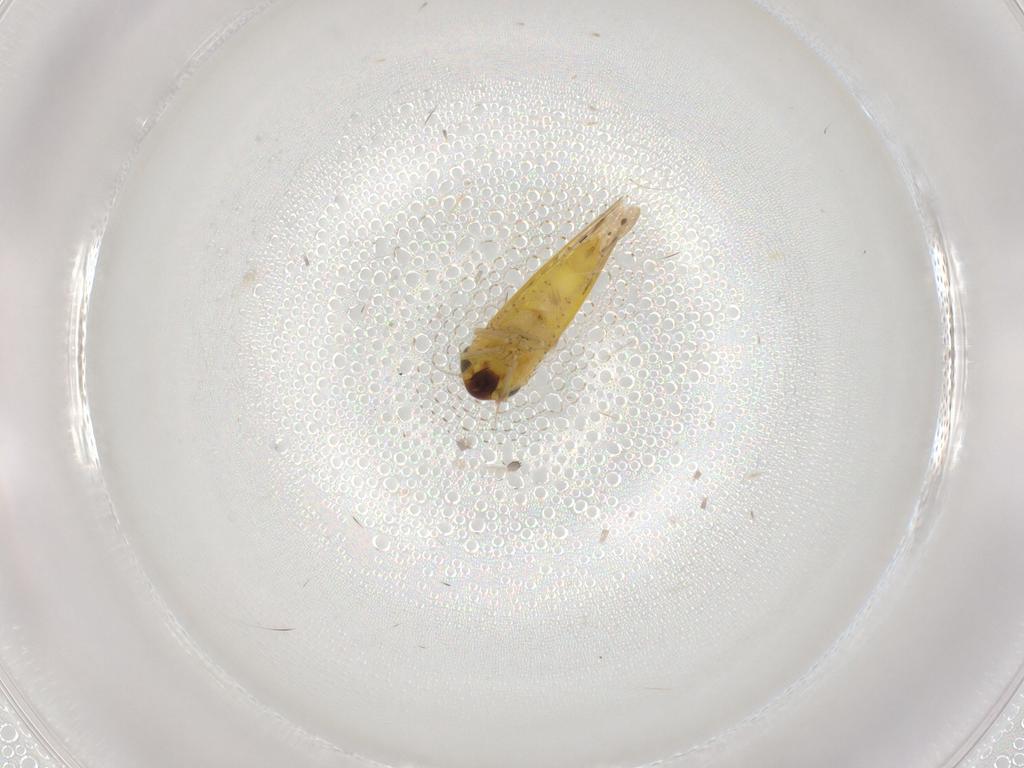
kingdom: Animalia
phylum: Arthropoda
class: Insecta
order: Hemiptera
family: Cicadellidae
